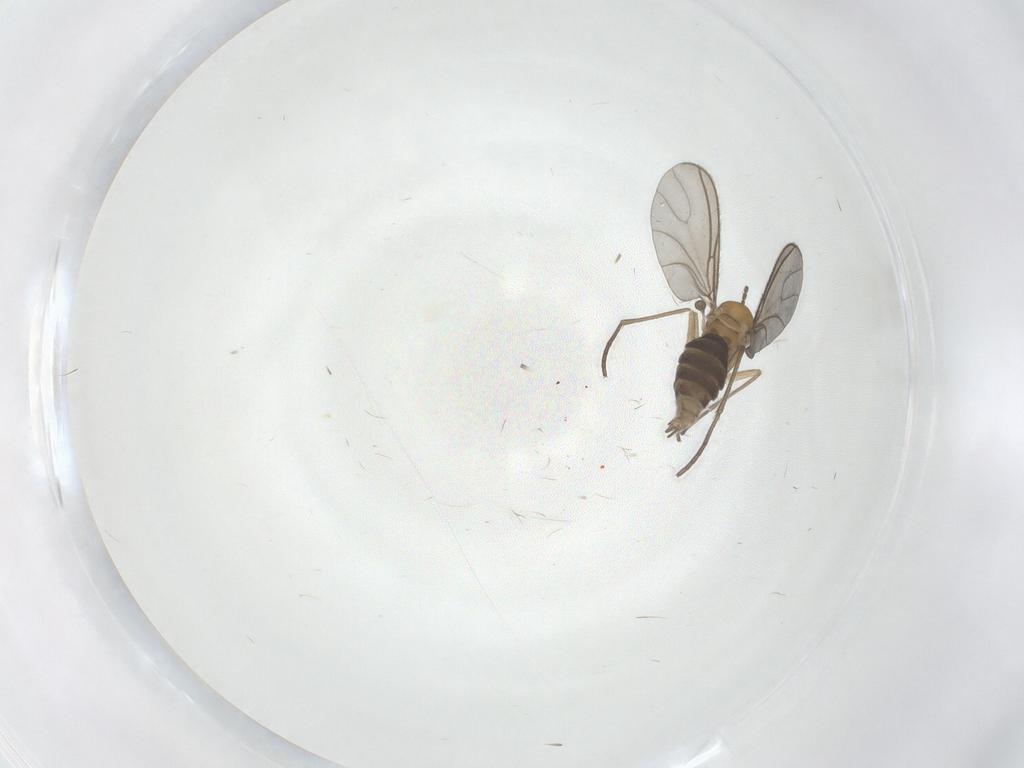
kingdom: Animalia
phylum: Arthropoda
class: Insecta
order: Diptera
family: Sciaridae
